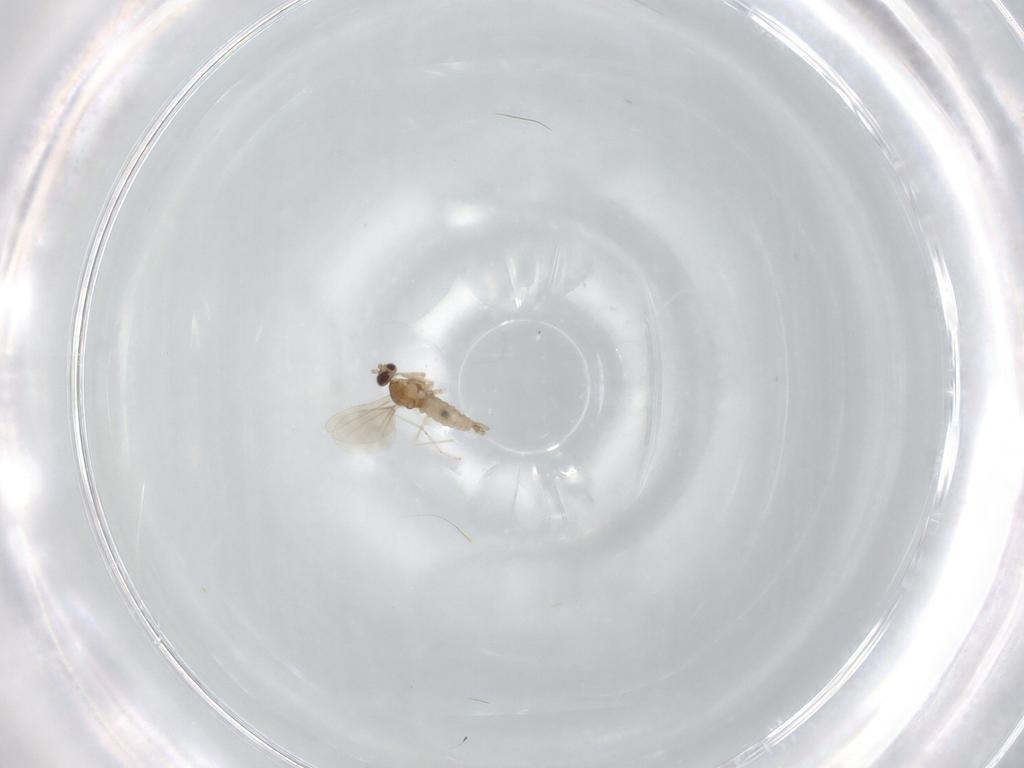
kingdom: Animalia
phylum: Arthropoda
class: Insecta
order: Diptera
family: Cecidomyiidae
